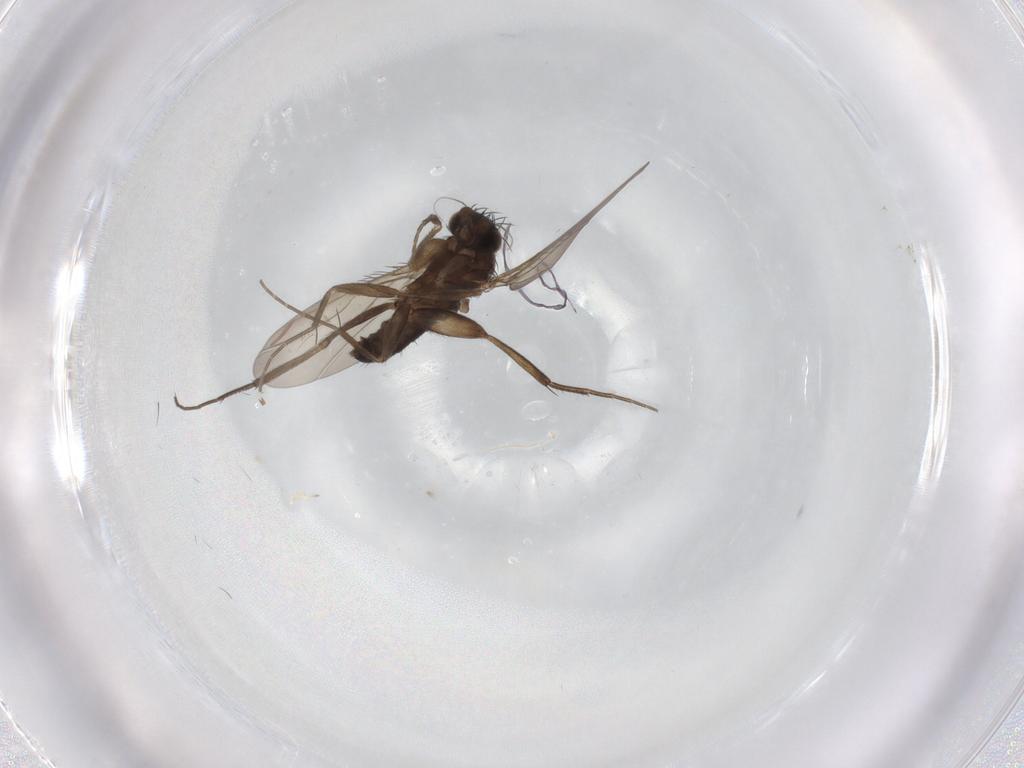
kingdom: Animalia
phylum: Arthropoda
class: Insecta
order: Diptera
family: Phoridae
